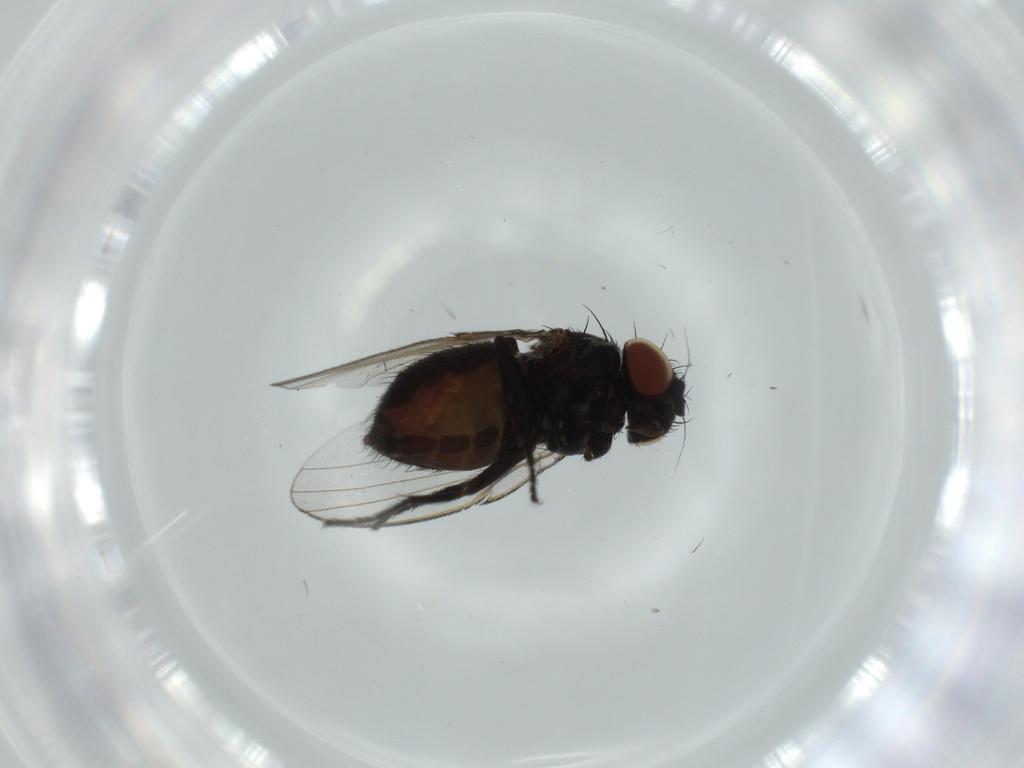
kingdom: Animalia
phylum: Arthropoda
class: Insecta
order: Diptera
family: Milichiidae
